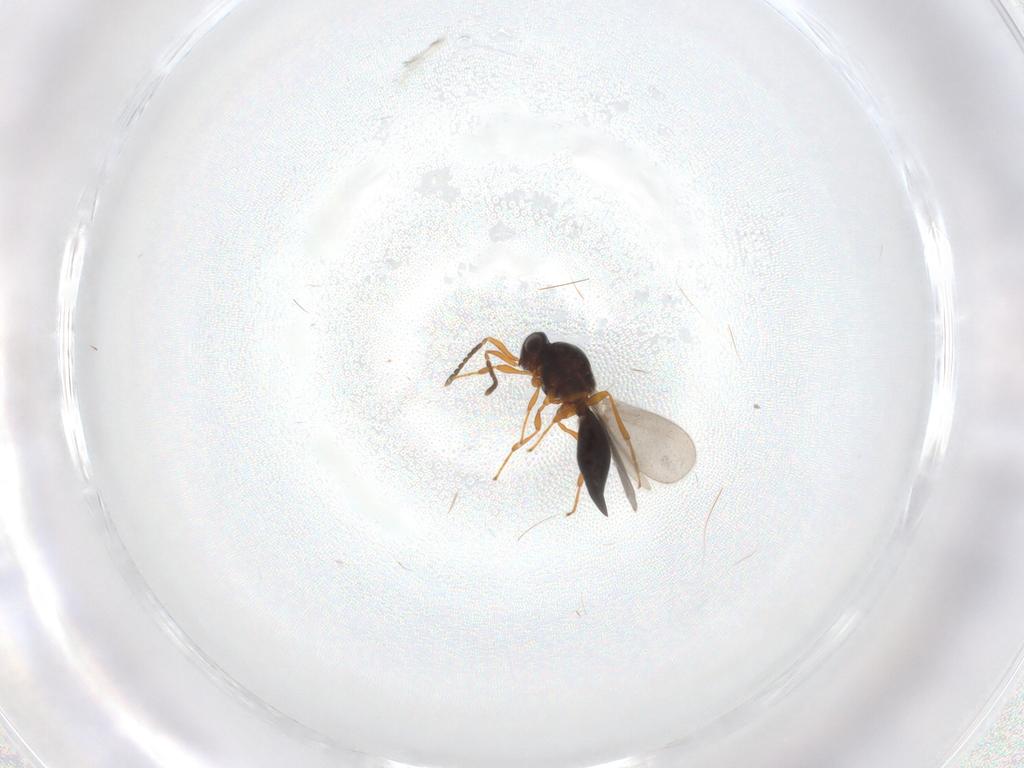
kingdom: Animalia
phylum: Arthropoda
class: Insecta
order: Hymenoptera
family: Platygastridae
